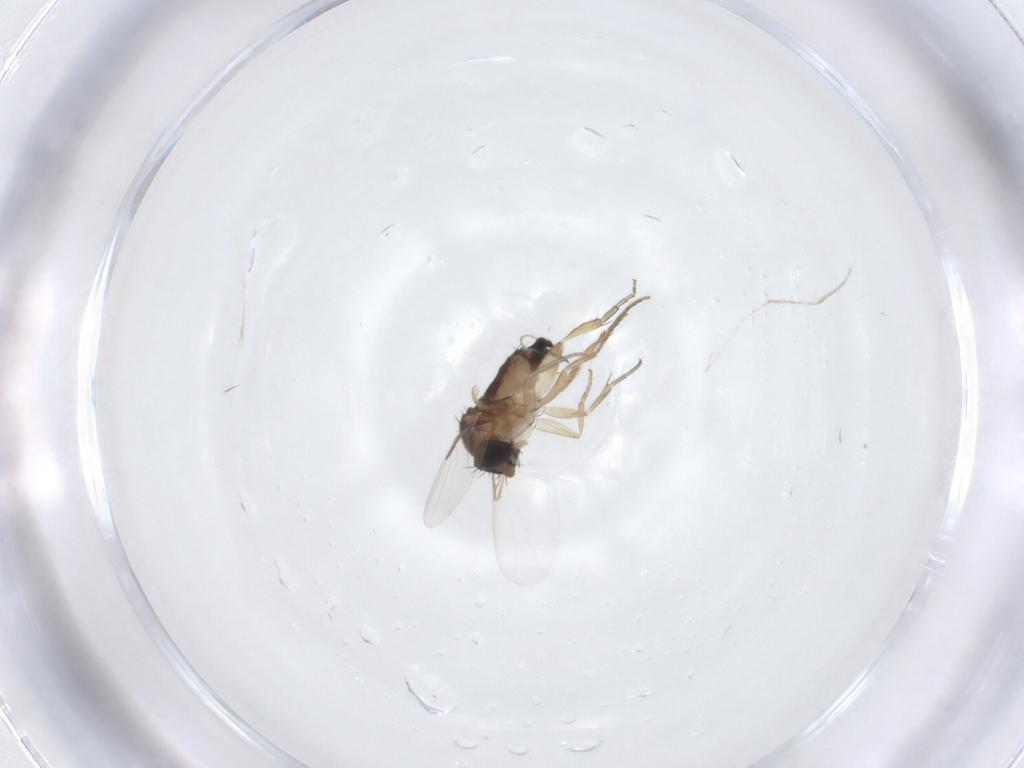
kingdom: Animalia
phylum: Arthropoda
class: Insecta
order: Diptera
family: Phoridae
